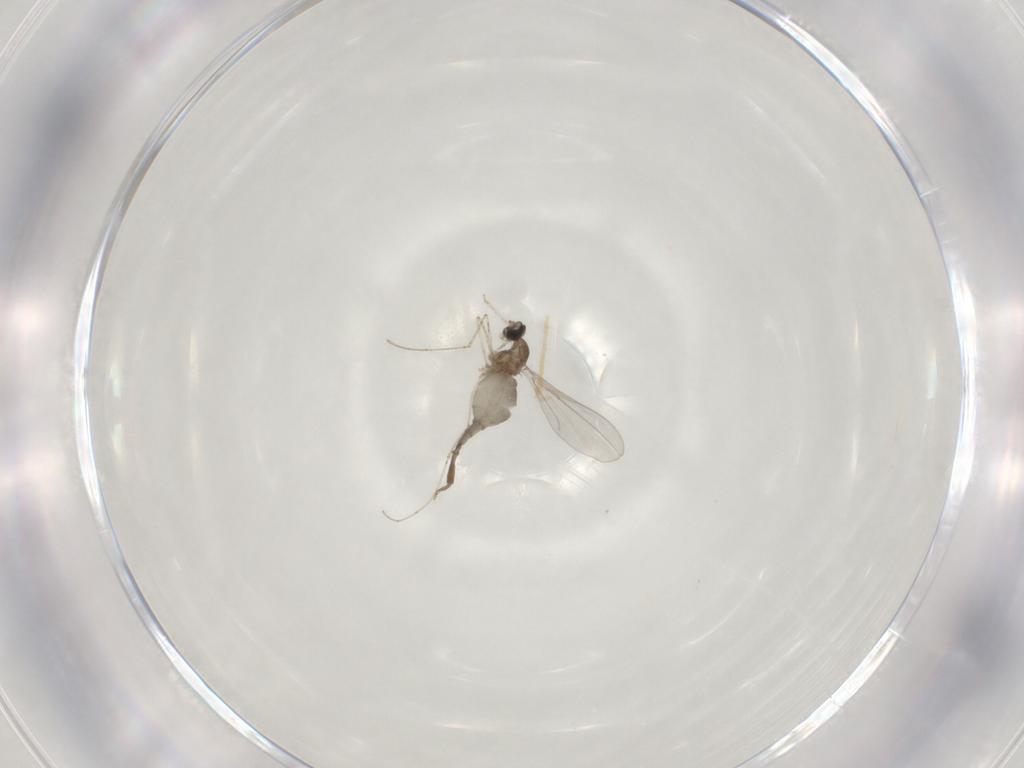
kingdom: Animalia
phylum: Arthropoda
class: Insecta
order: Diptera
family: Cecidomyiidae
